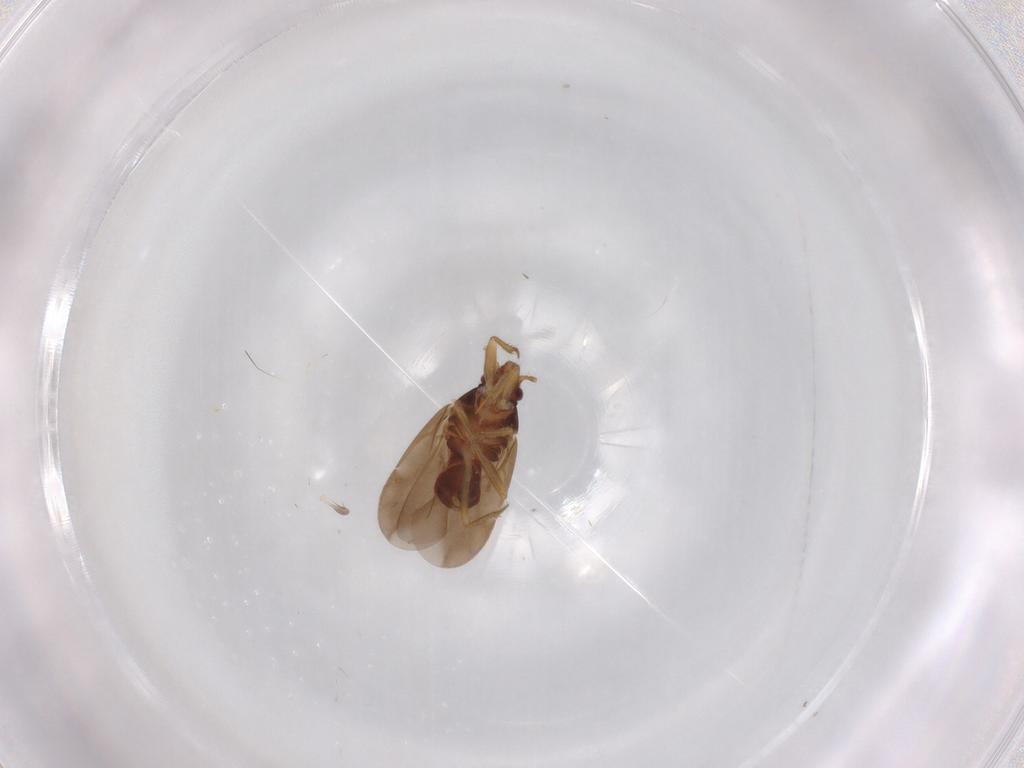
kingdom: Animalia
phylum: Arthropoda
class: Insecta
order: Hemiptera
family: Ceratocombidae
